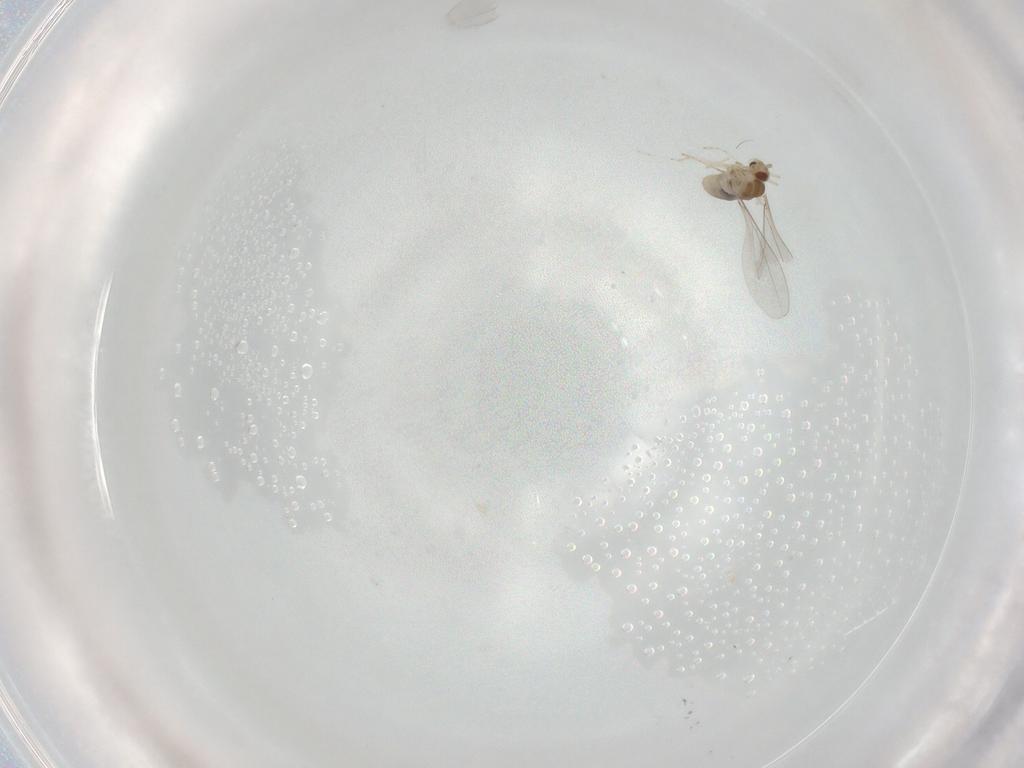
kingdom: Animalia
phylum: Arthropoda
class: Insecta
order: Diptera
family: Cecidomyiidae
